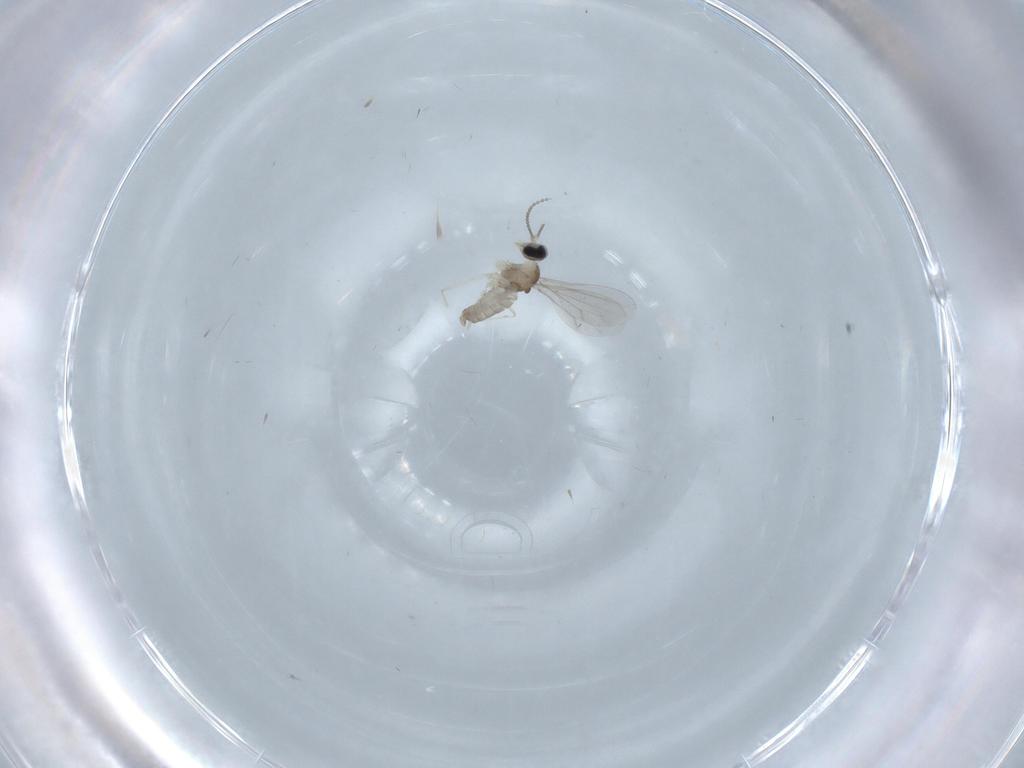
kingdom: Animalia
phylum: Arthropoda
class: Insecta
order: Diptera
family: Dolichopodidae
